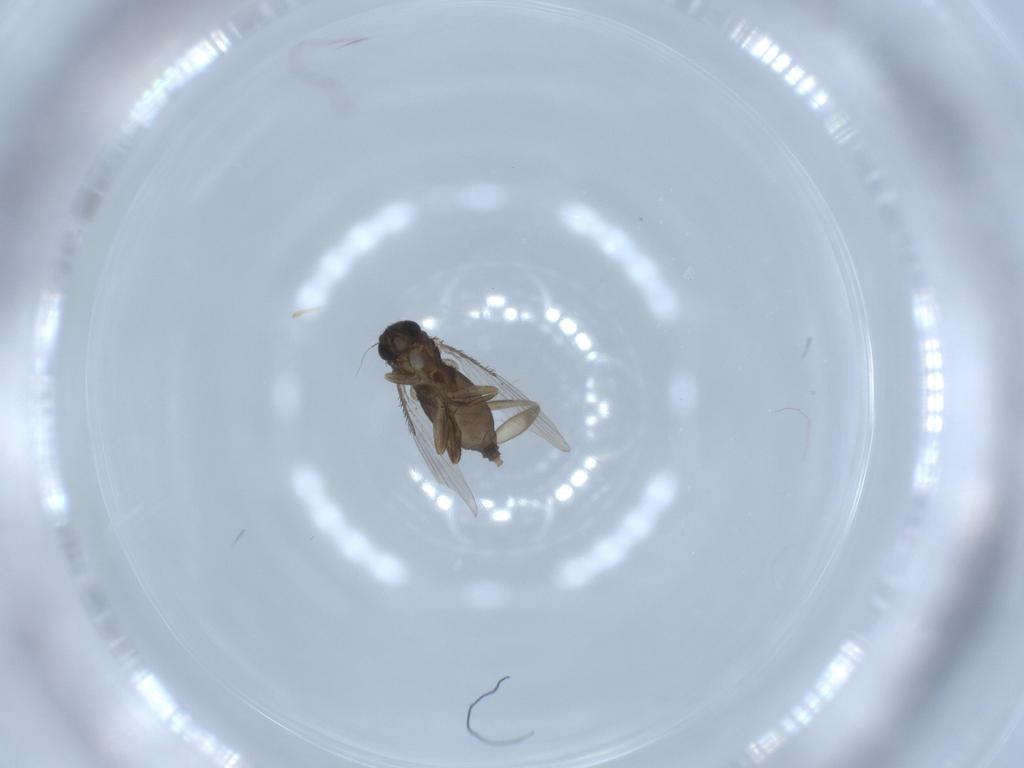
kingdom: Animalia
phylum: Arthropoda
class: Insecta
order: Diptera
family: Phoridae
